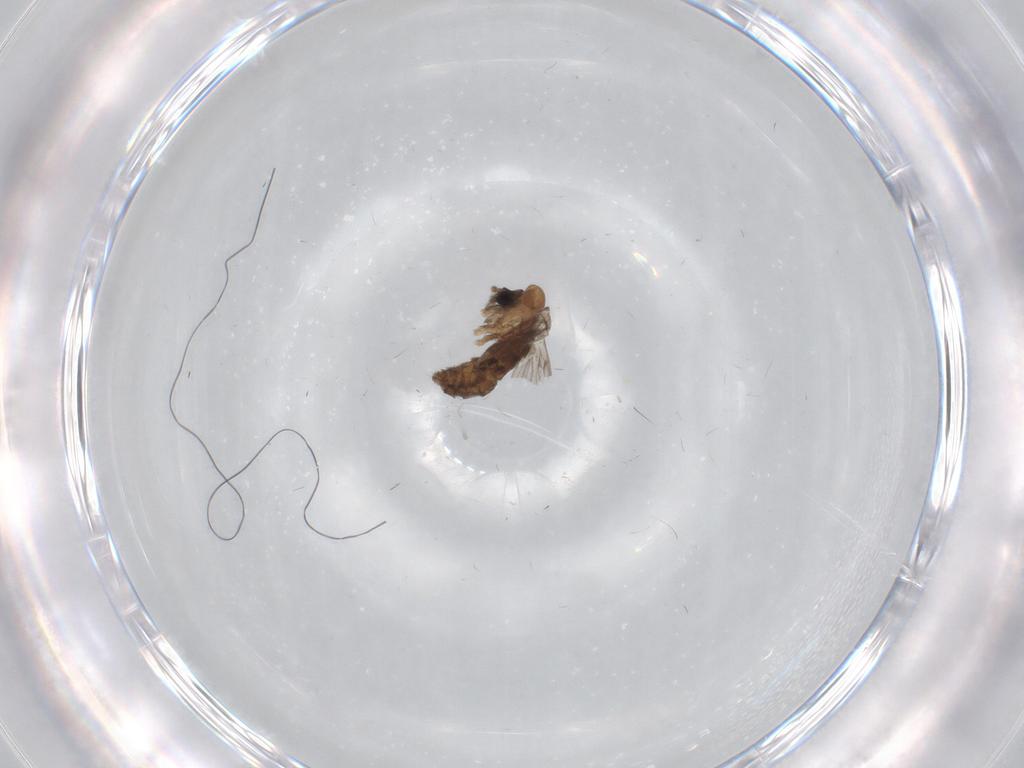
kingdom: Animalia
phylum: Arthropoda
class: Insecta
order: Diptera
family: Psychodidae
